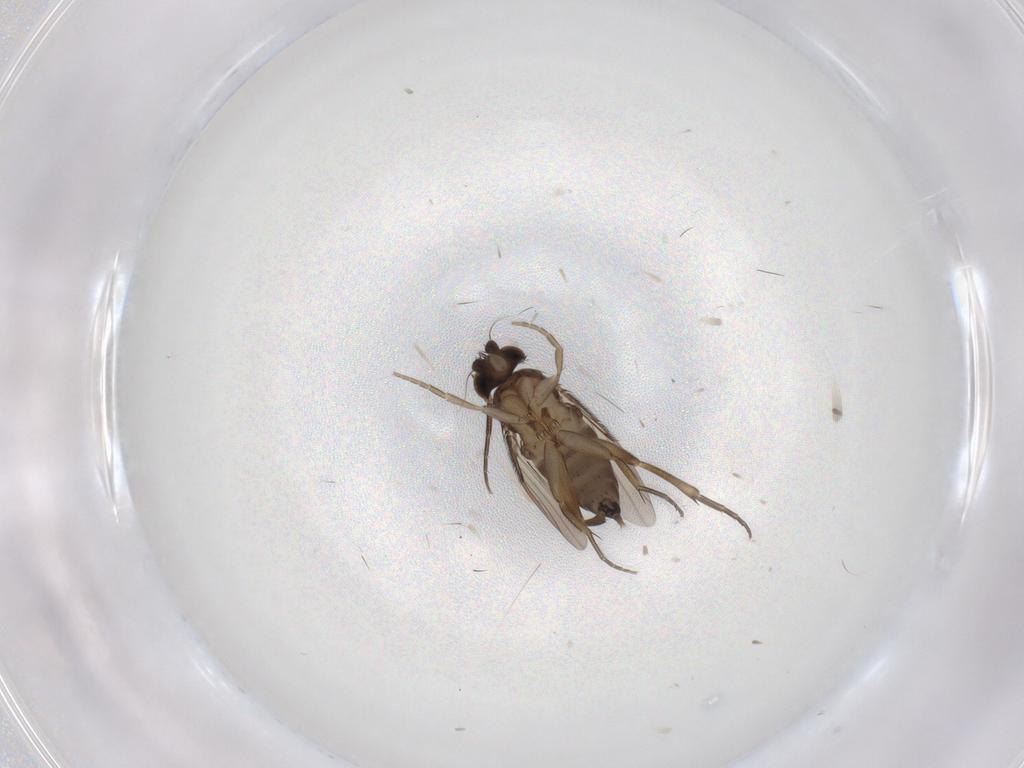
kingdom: Animalia
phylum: Arthropoda
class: Insecta
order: Diptera
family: Phoridae
